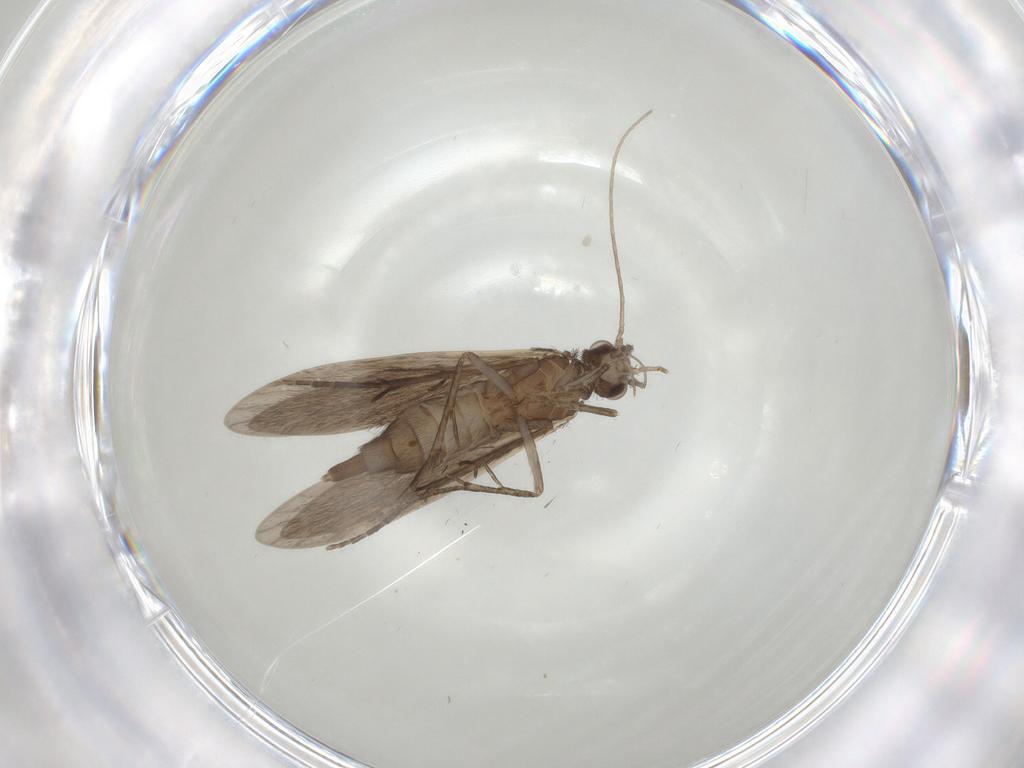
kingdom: Animalia
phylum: Arthropoda
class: Insecta
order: Trichoptera
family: Xiphocentronidae
